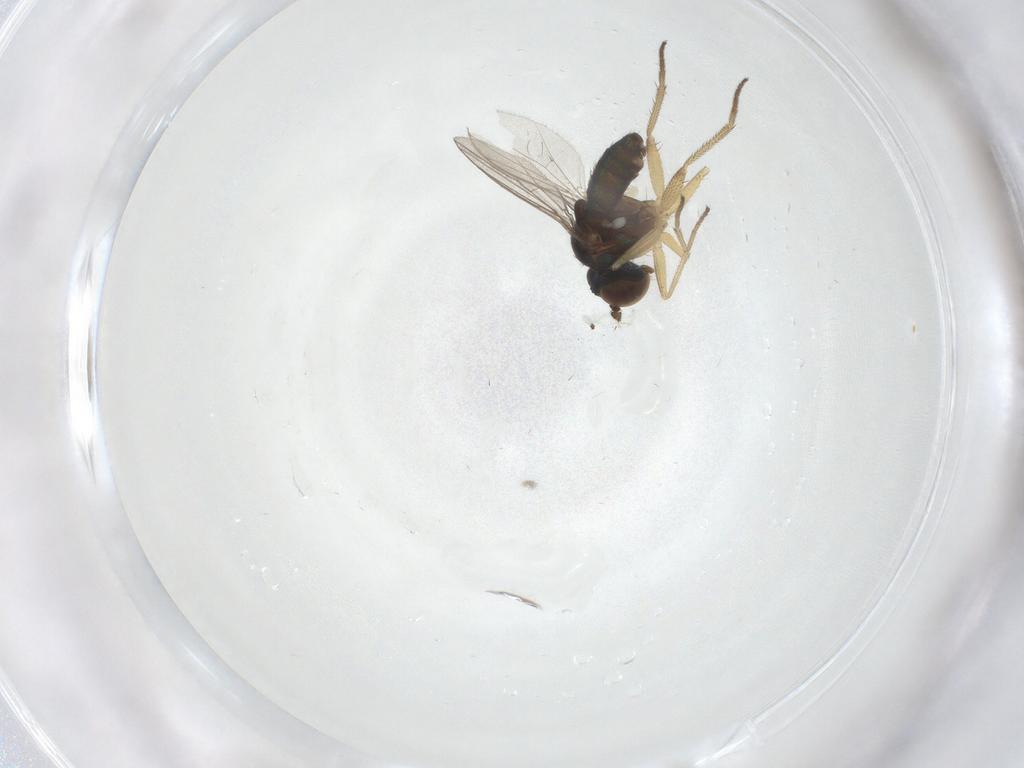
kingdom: Animalia
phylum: Arthropoda
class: Insecta
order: Diptera
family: Dolichopodidae
